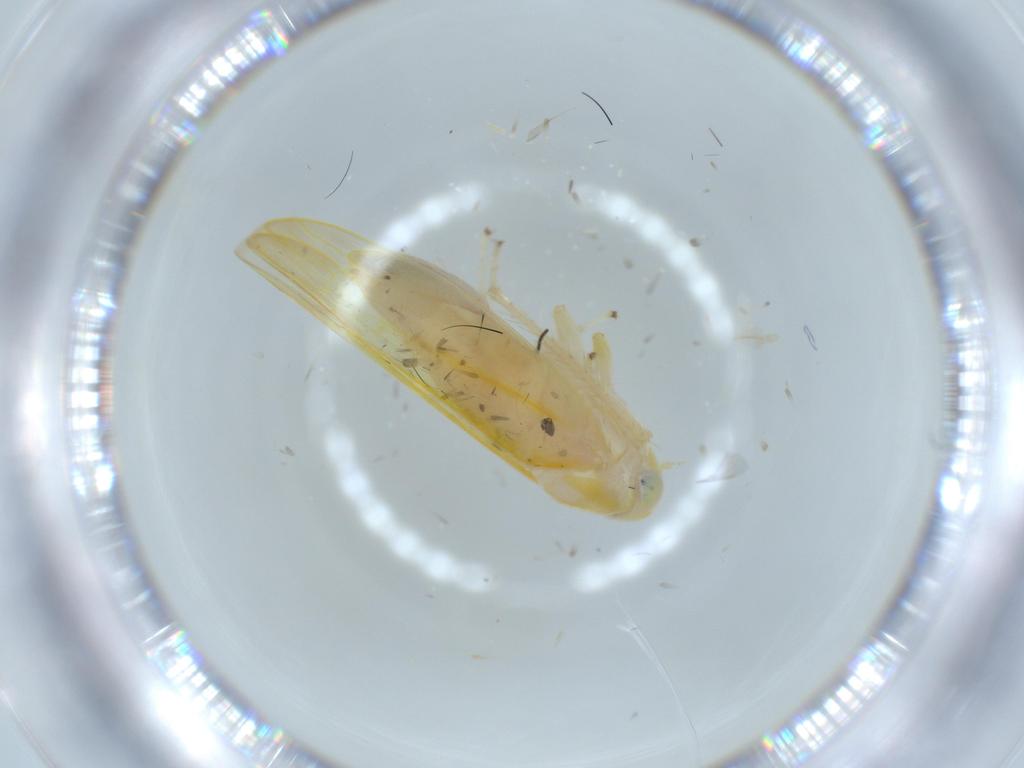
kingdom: Animalia
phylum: Arthropoda
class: Insecta
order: Hemiptera
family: Cicadellidae
